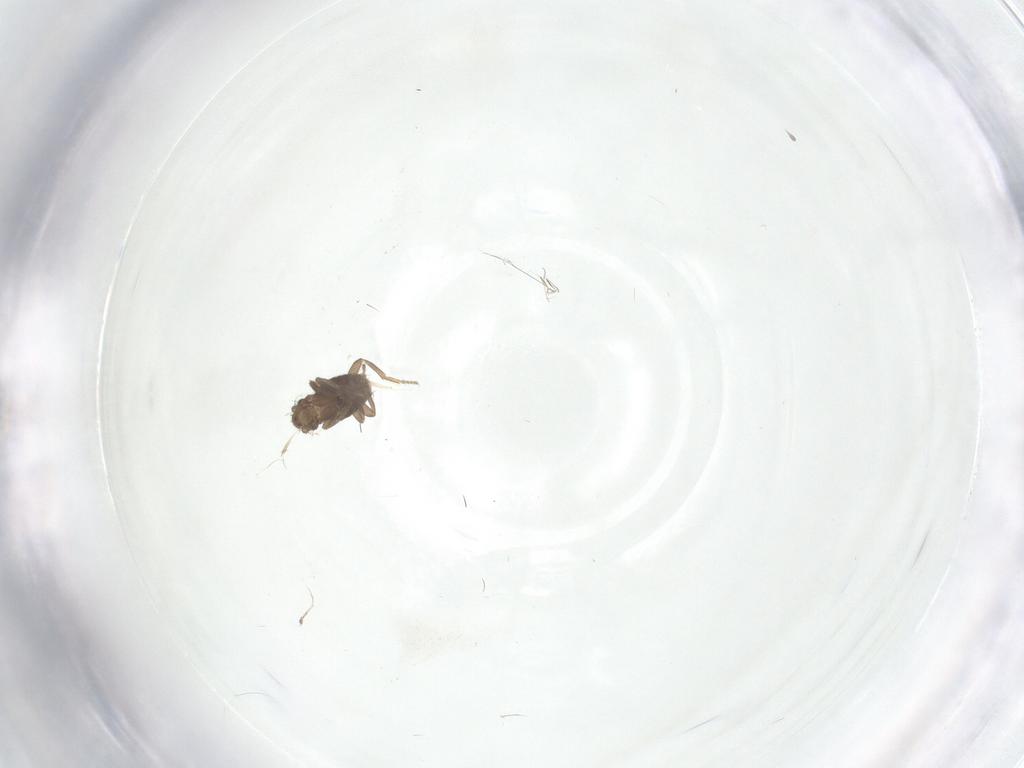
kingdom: Animalia
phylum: Arthropoda
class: Insecta
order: Diptera
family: Phoridae
